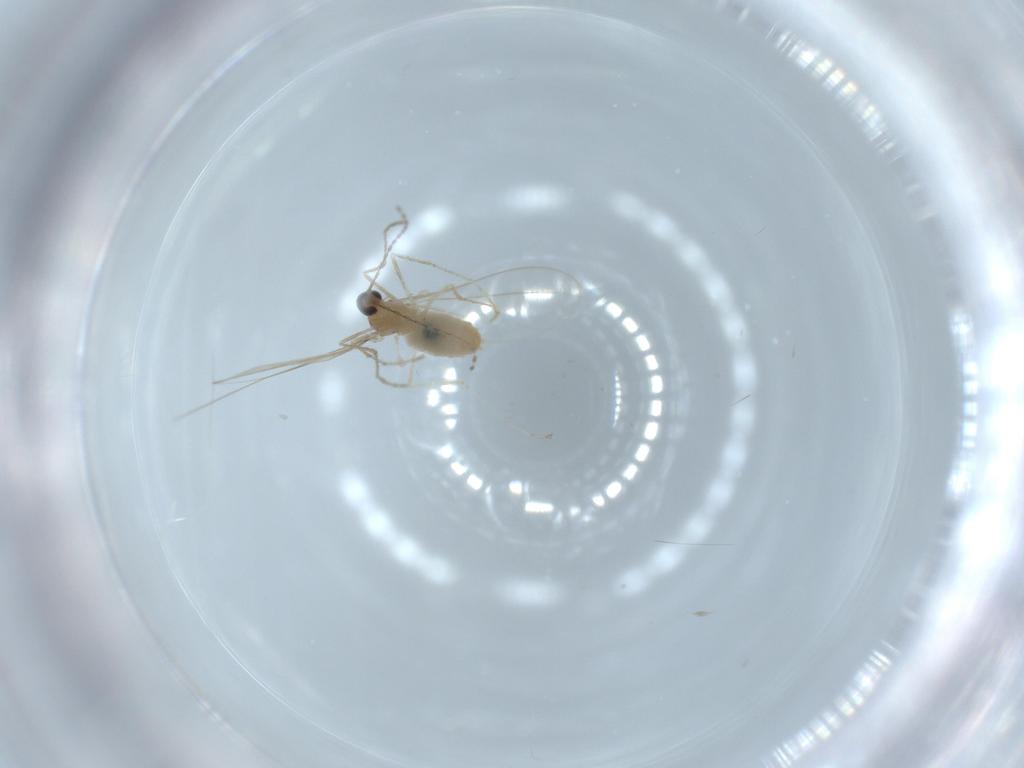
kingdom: Animalia
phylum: Arthropoda
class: Insecta
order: Diptera
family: Cecidomyiidae
